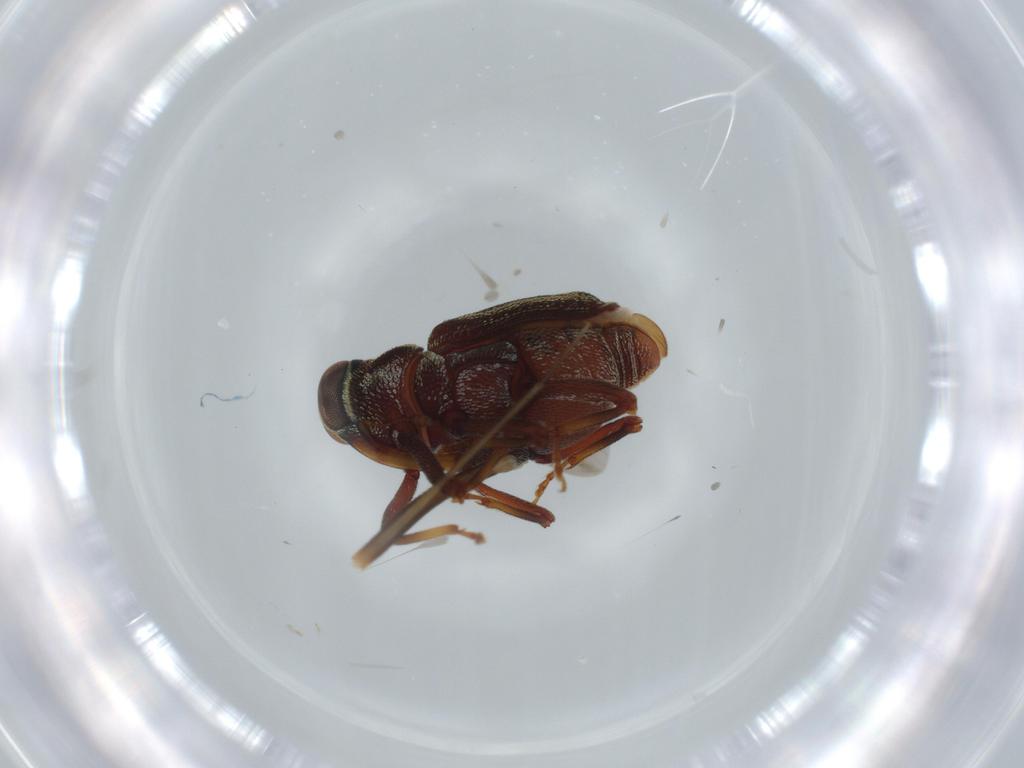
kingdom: Animalia
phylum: Arthropoda
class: Insecta
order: Coleoptera
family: Curculionidae
